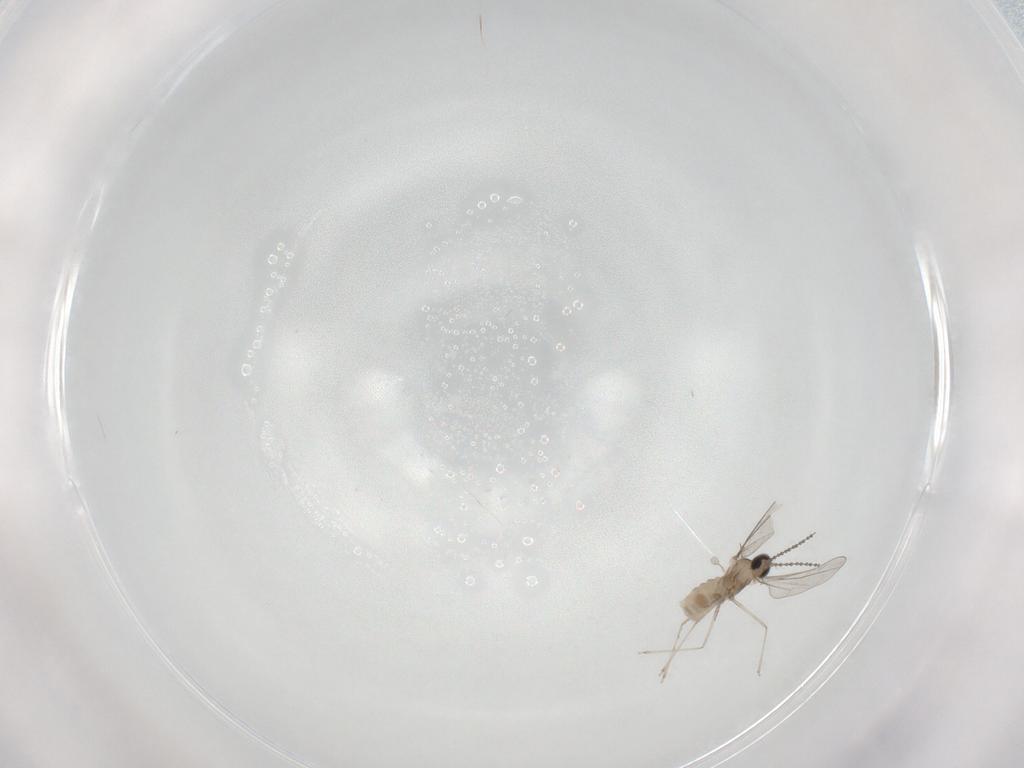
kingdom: Animalia
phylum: Arthropoda
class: Insecta
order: Diptera
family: Cecidomyiidae
